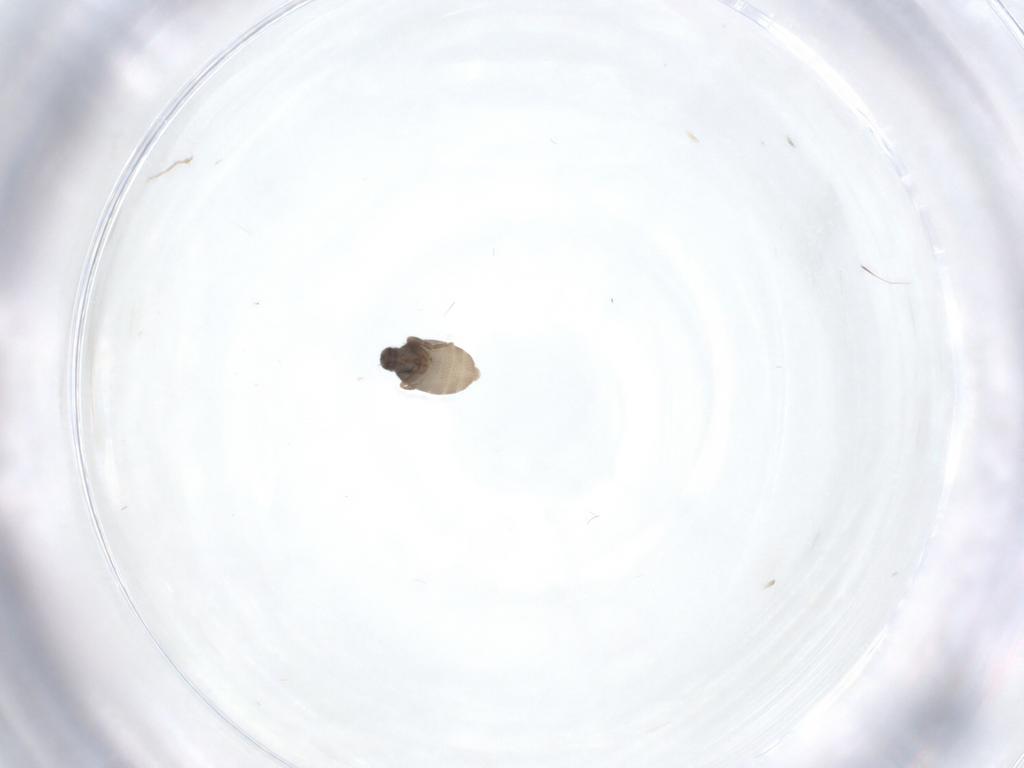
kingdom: Animalia
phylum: Arthropoda
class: Insecta
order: Diptera
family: Phoridae
